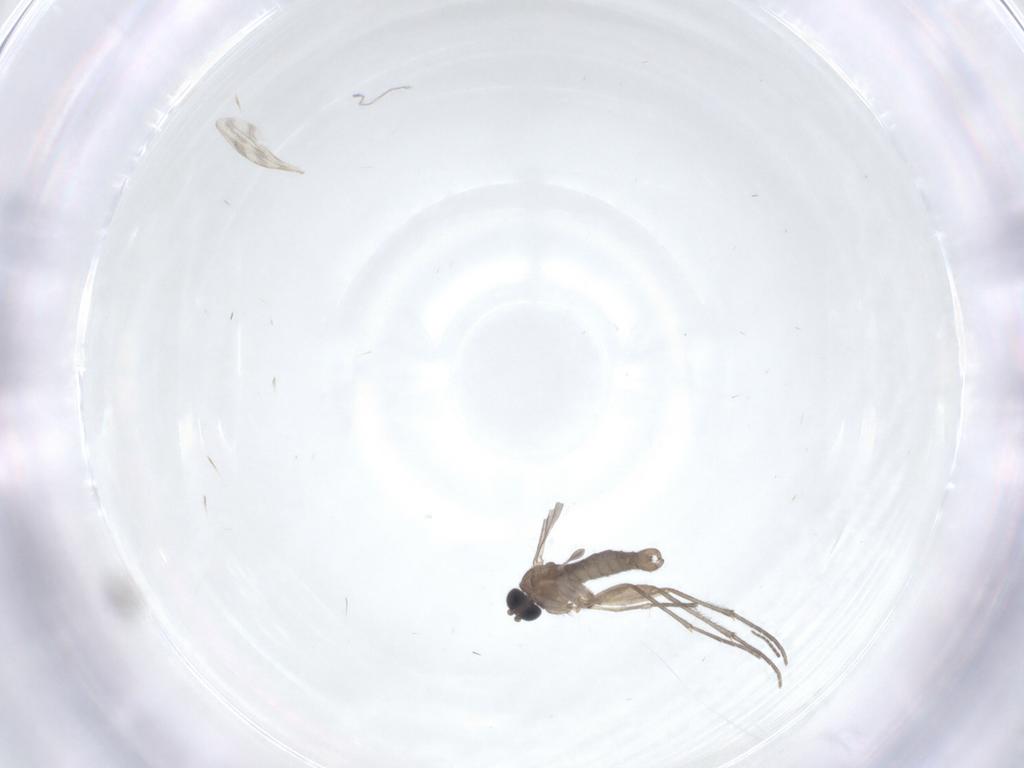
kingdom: Animalia
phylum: Arthropoda
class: Insecta
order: Diptera
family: Sciaridae
